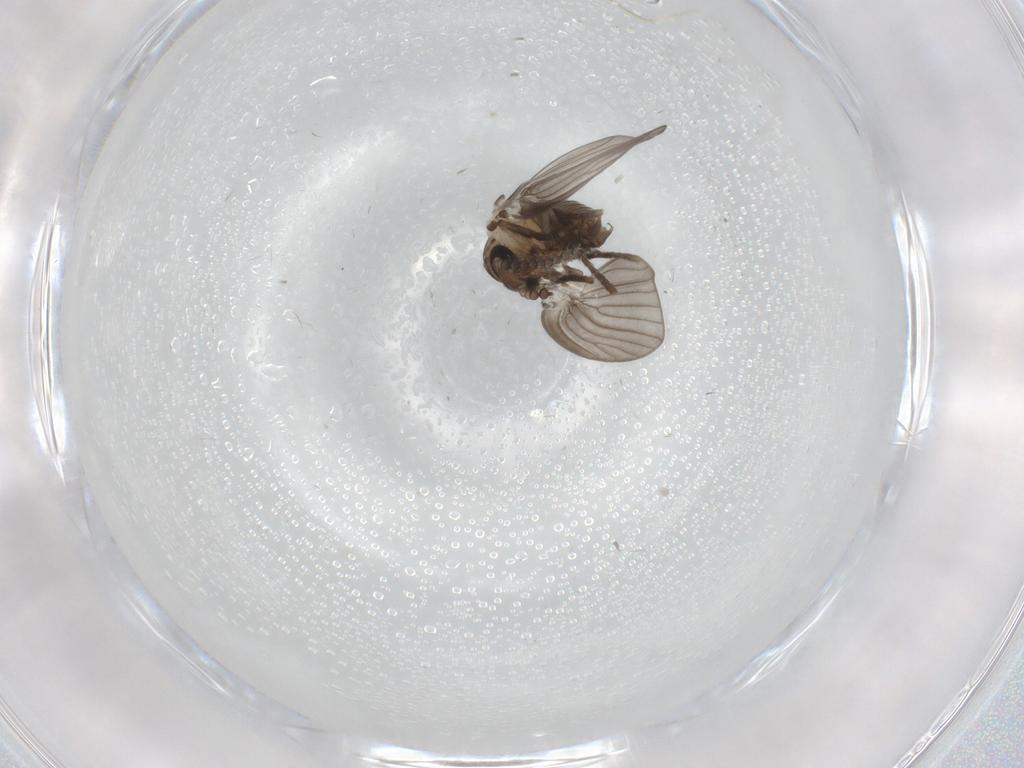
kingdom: Animalia
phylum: Arthropoda
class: Insecta
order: Diptera
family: Psychodidae
